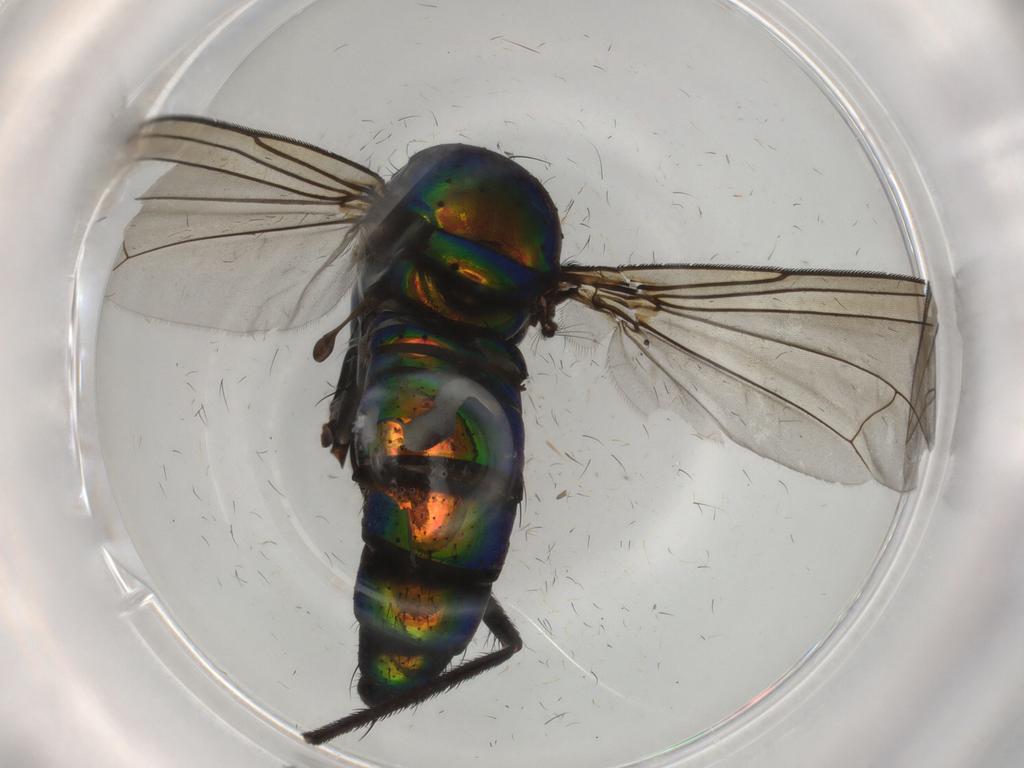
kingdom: Animalia
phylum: Arthropoda
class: Insecta
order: Diptera
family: Dolichopodidae
